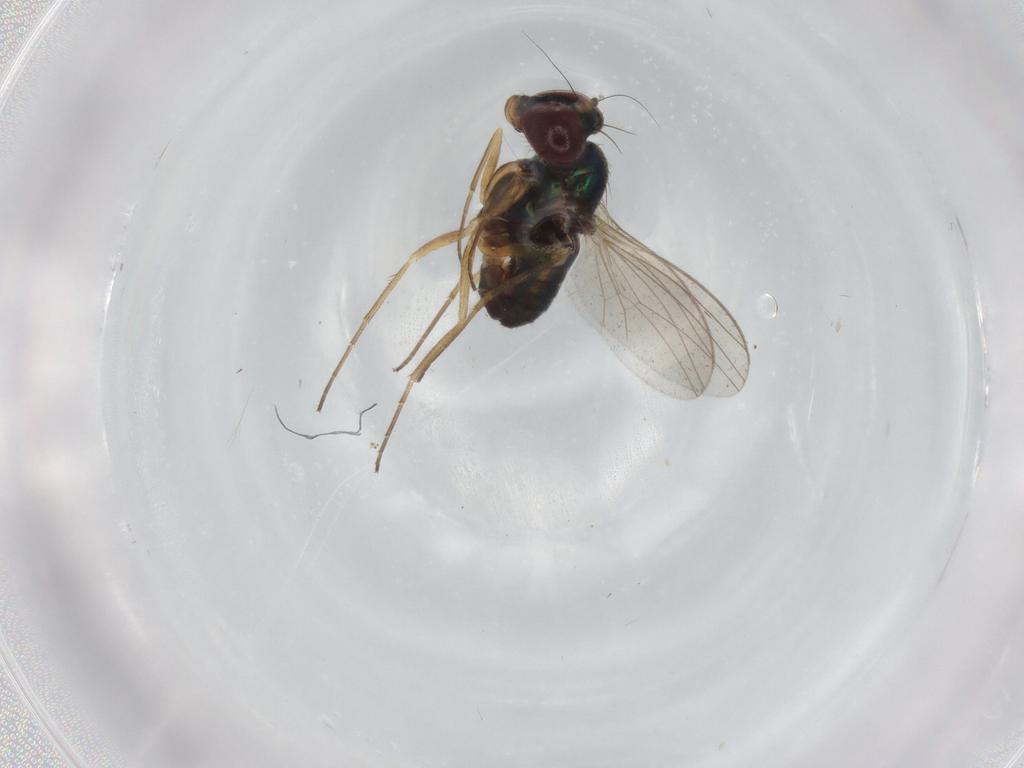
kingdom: Animalia
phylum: Arthropoda
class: Insecta
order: Diptera
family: Dolichopodidae
